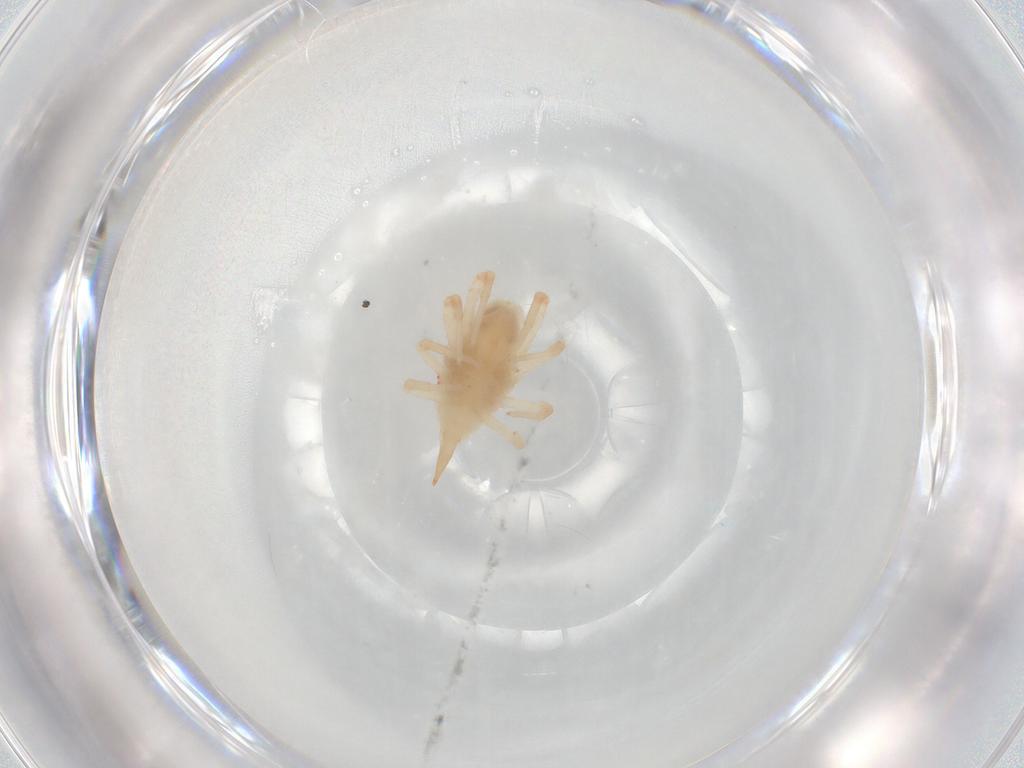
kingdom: Animalia
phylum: Arthropoda
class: Arachnida
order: Trombidiformes
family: Bdellidae
